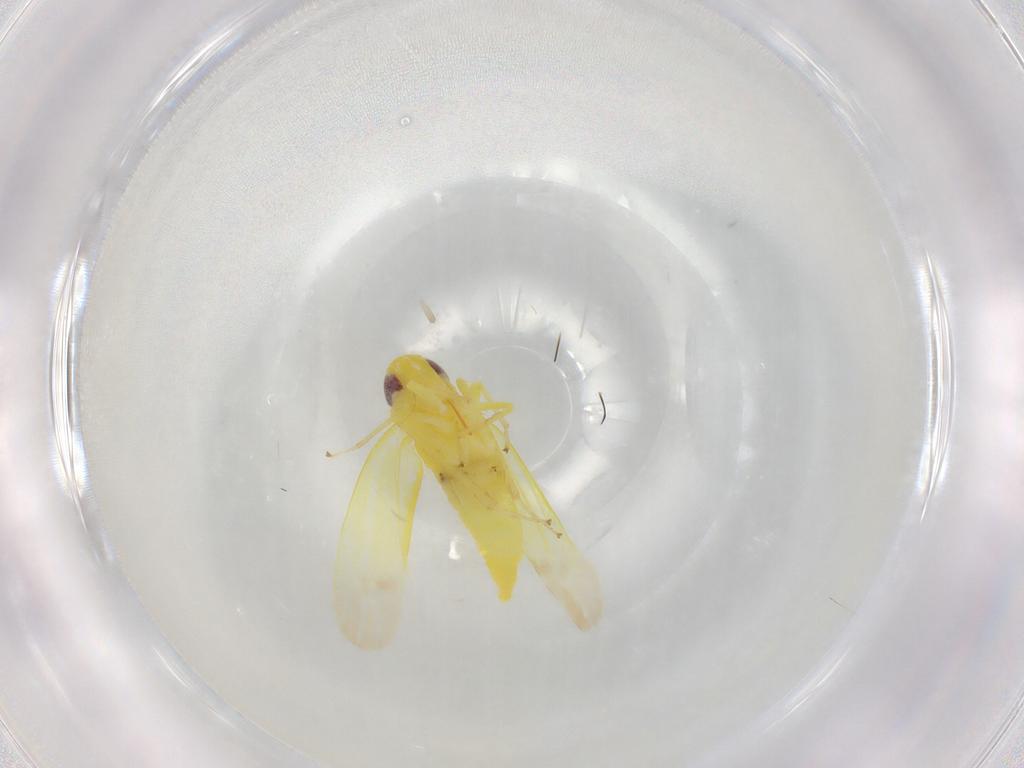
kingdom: Animalia
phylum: Arthropoda
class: Insecta
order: Hemiptera
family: Cicadellidae
